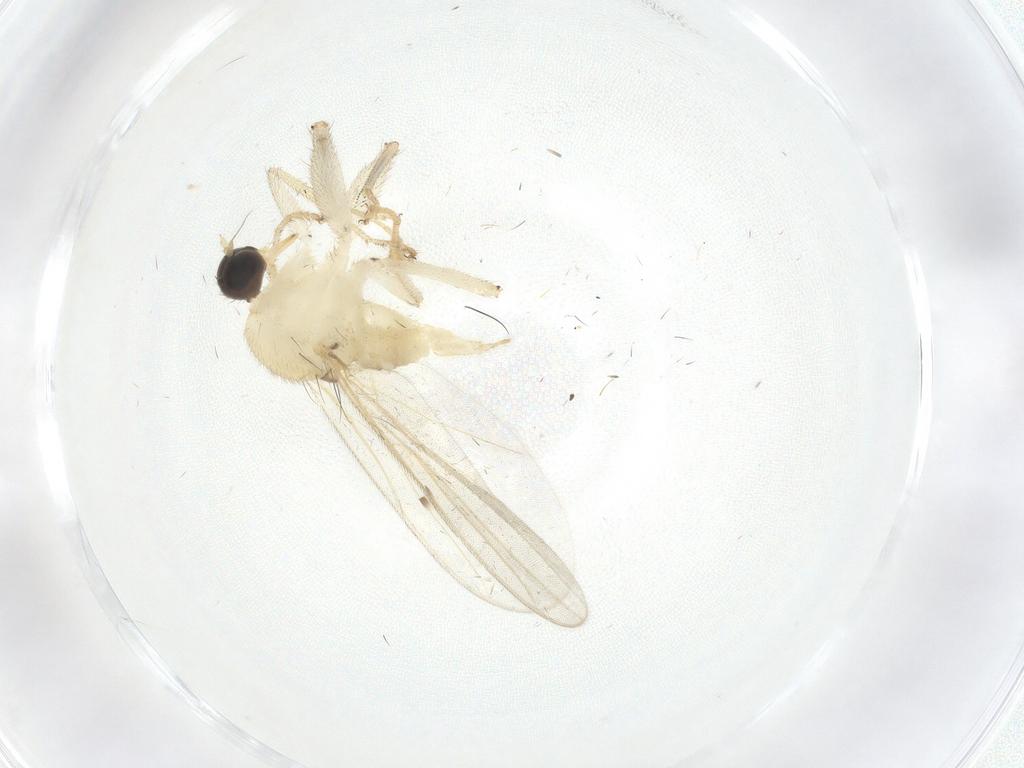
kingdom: Animalia
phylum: Arthropoda
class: Insecta
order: Diptera
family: Hybotidae
